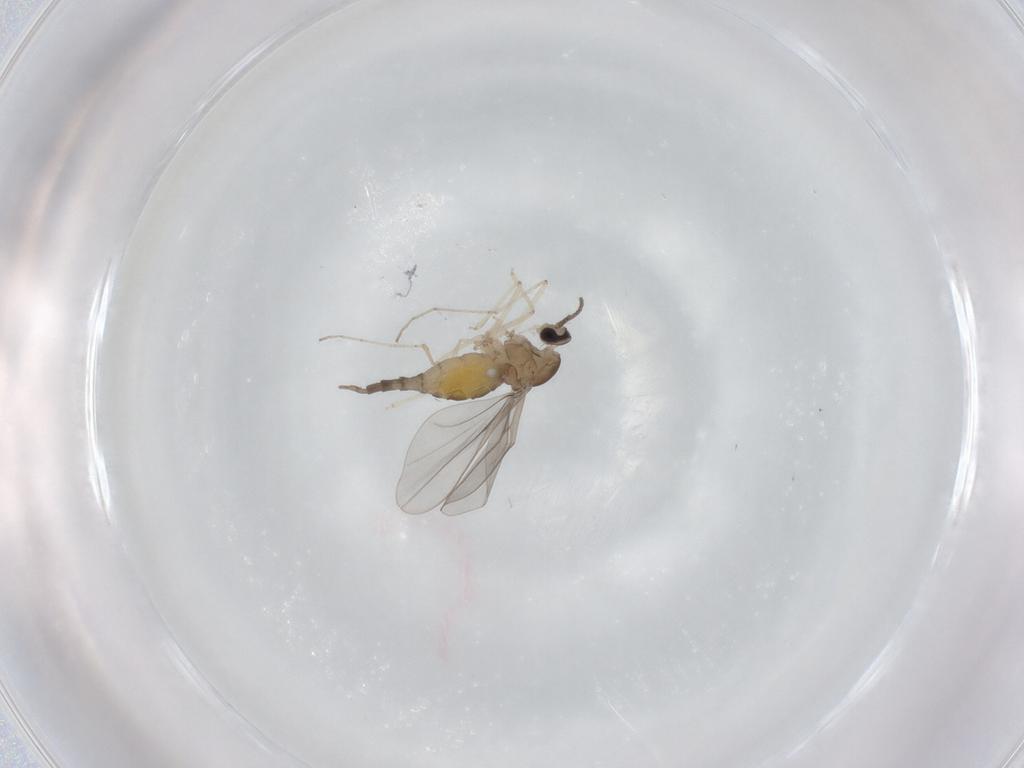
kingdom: Animalia
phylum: Arthropoda
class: Insecta
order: Diptera
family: Cecidomyiidae
